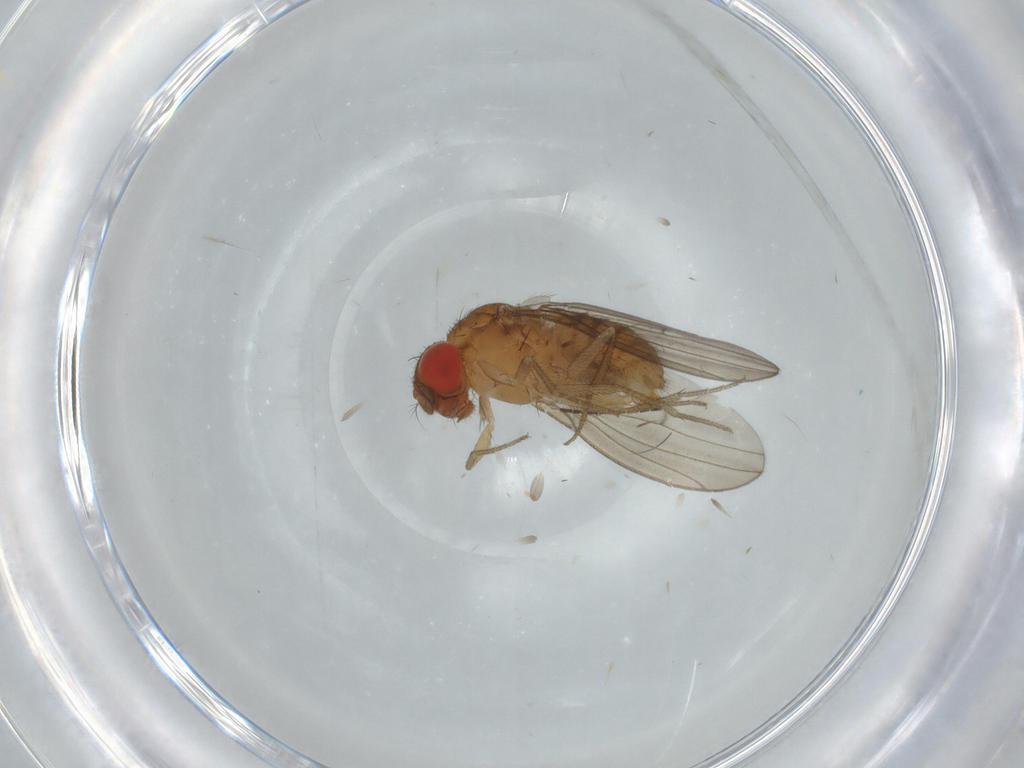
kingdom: Animalia
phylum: Arthropoda
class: Insecta
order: Diptera
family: Drosophilidae
